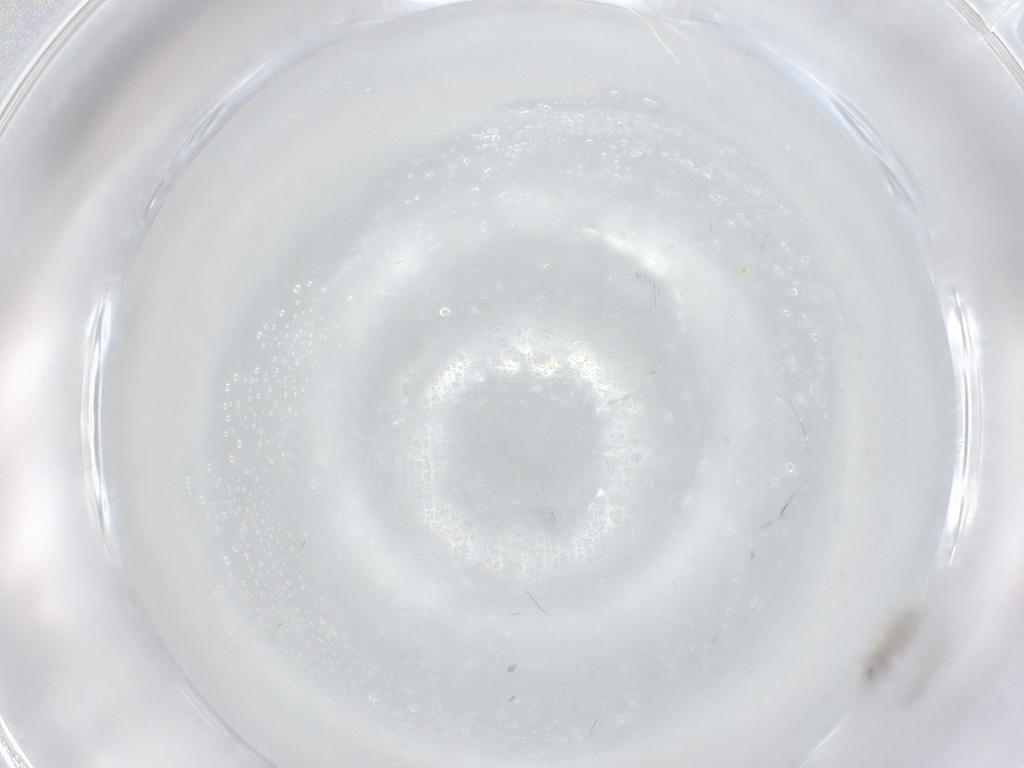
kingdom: Animalia
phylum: Arthropoda
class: Insecta
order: Diptera
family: Cecidomyiidae
